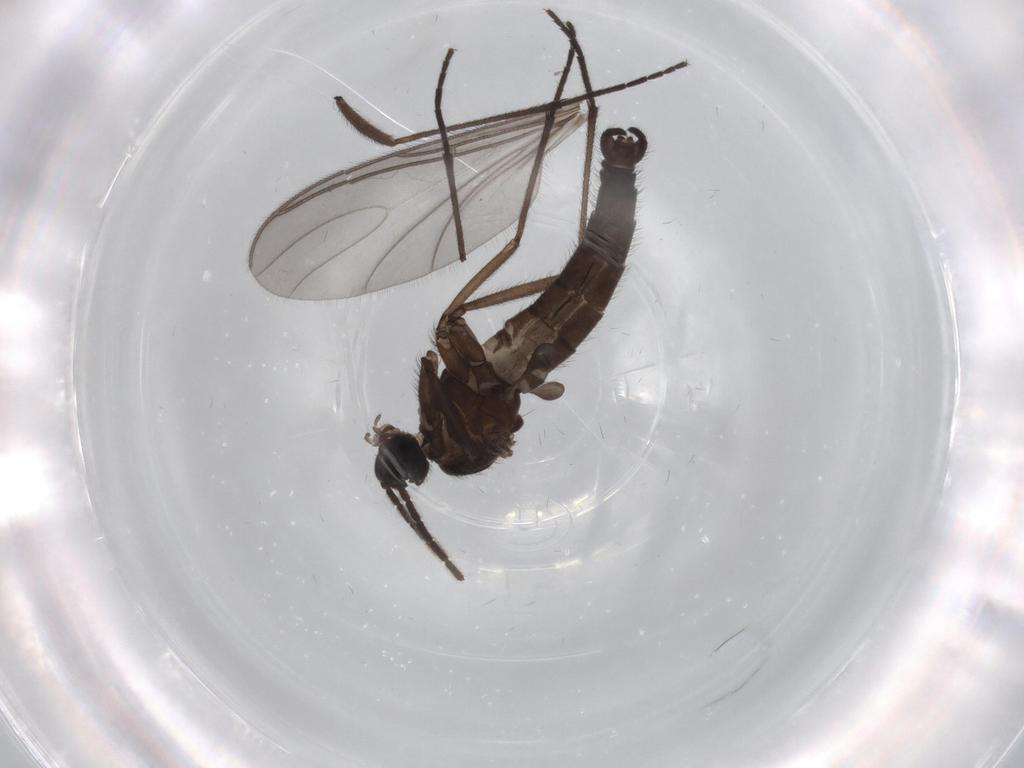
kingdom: Animalia
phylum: Arthropoda
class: Insecta
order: Diptera
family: Sciaridae
